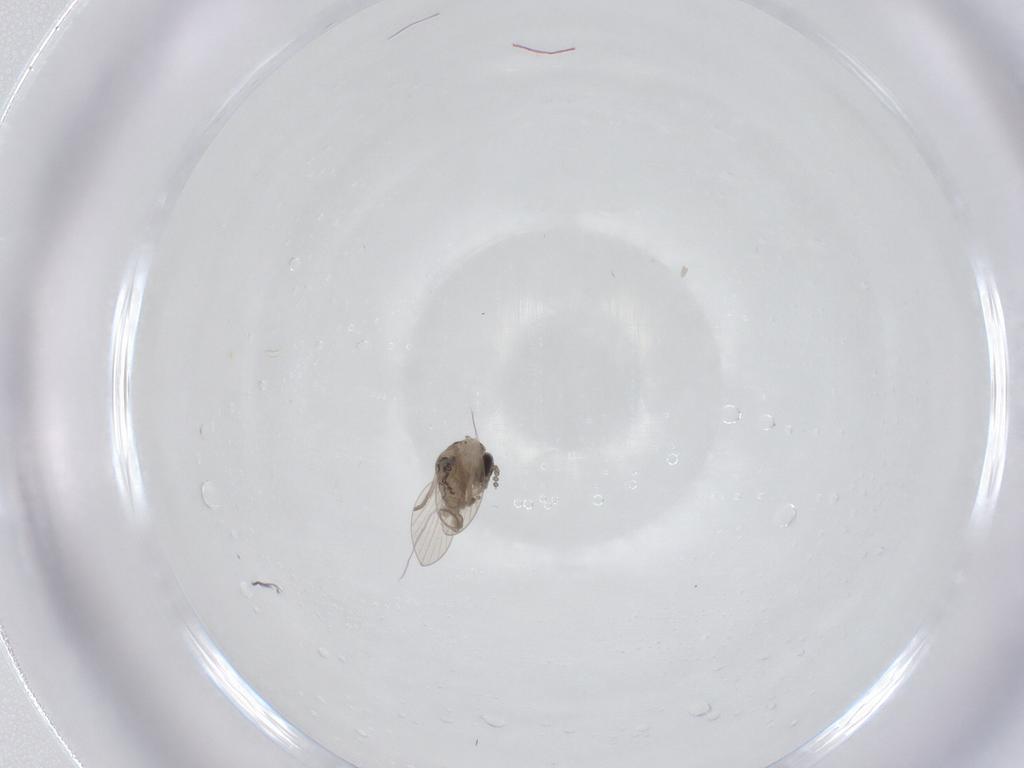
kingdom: Animalia
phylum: Arthropoda
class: Insecta
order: Diptera
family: Psychodidae
